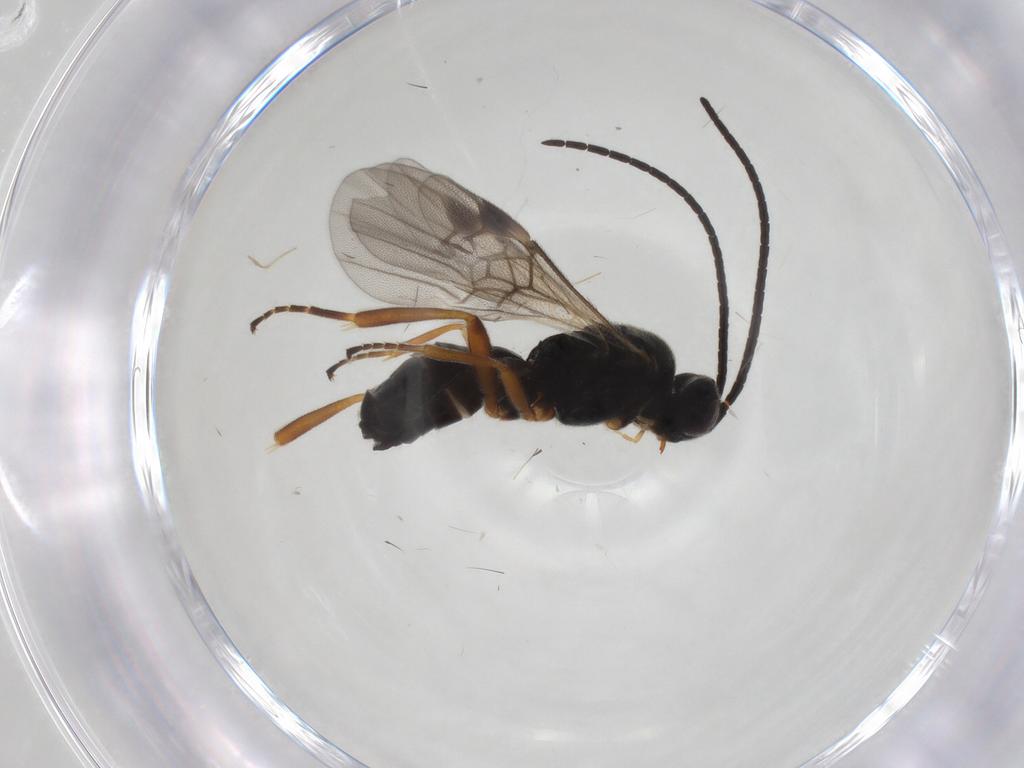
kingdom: Animalia
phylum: Arthropoda
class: Insecta
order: Hymenoptera
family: Braconidae
